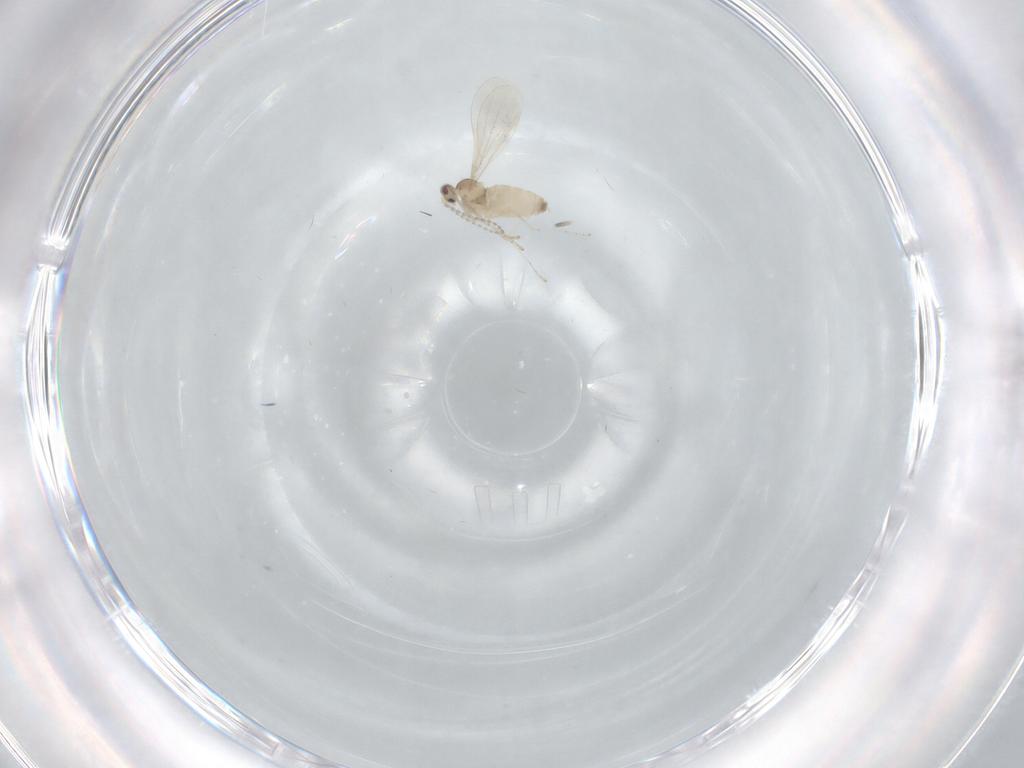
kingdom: Animalia
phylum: Arthropoda
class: Insecta
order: Diptera
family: Cecidomyiidae
